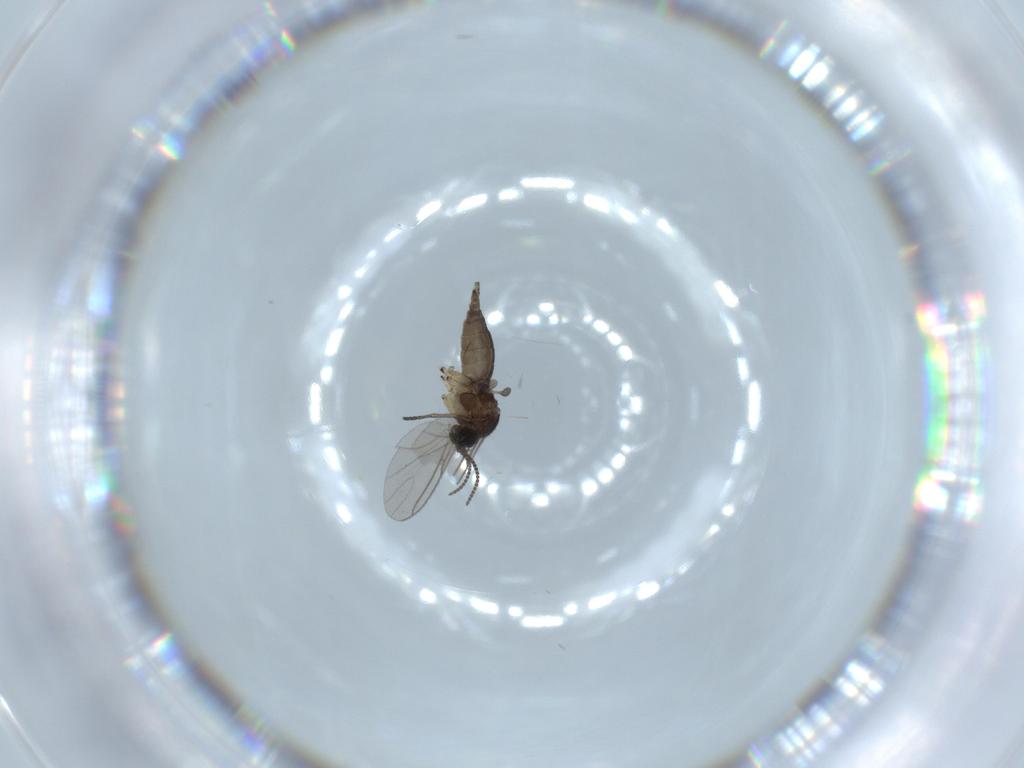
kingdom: Animalia
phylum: Arthropoda
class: Insecta
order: Diptera
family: Sciaridae
